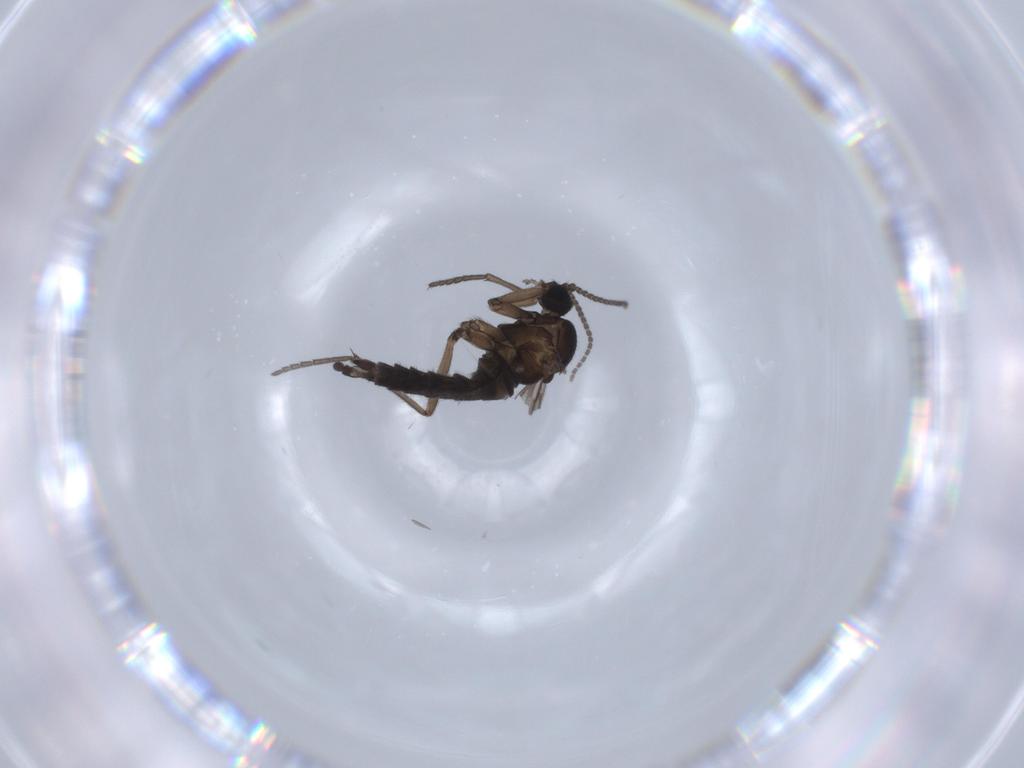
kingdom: Animalia
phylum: Arthropoda
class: Insecta
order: Diptera
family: Sciaridae
